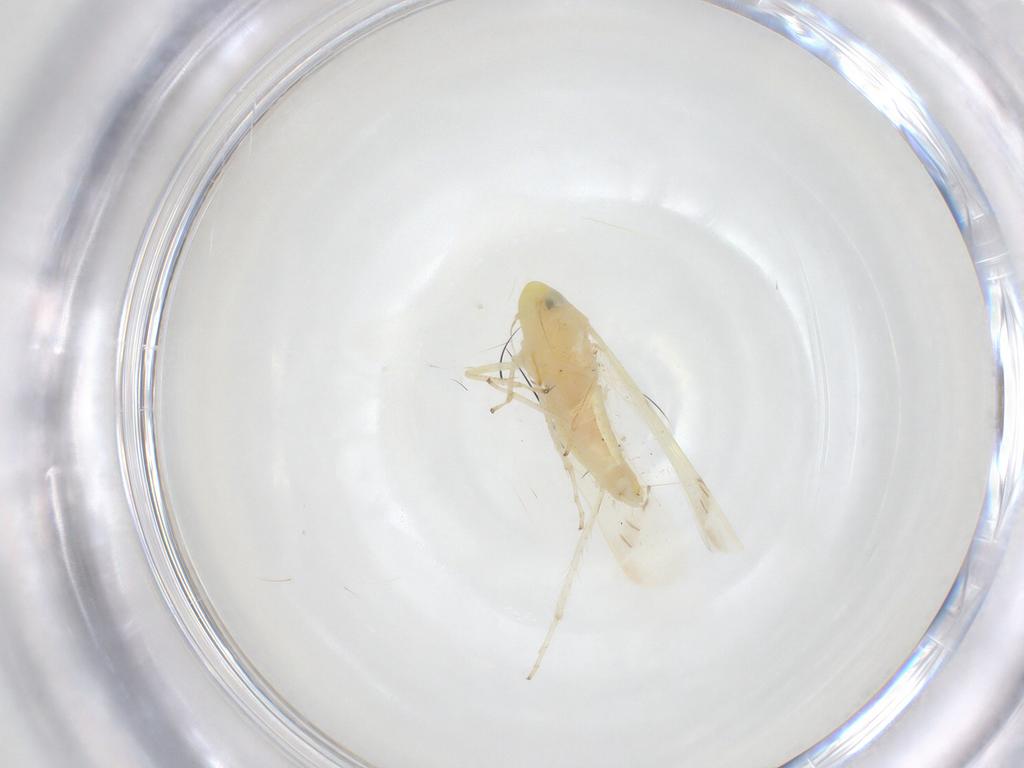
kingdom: Animalia
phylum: Arthropoda
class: Insecta
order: Hemiptera
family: Cicadellidae
